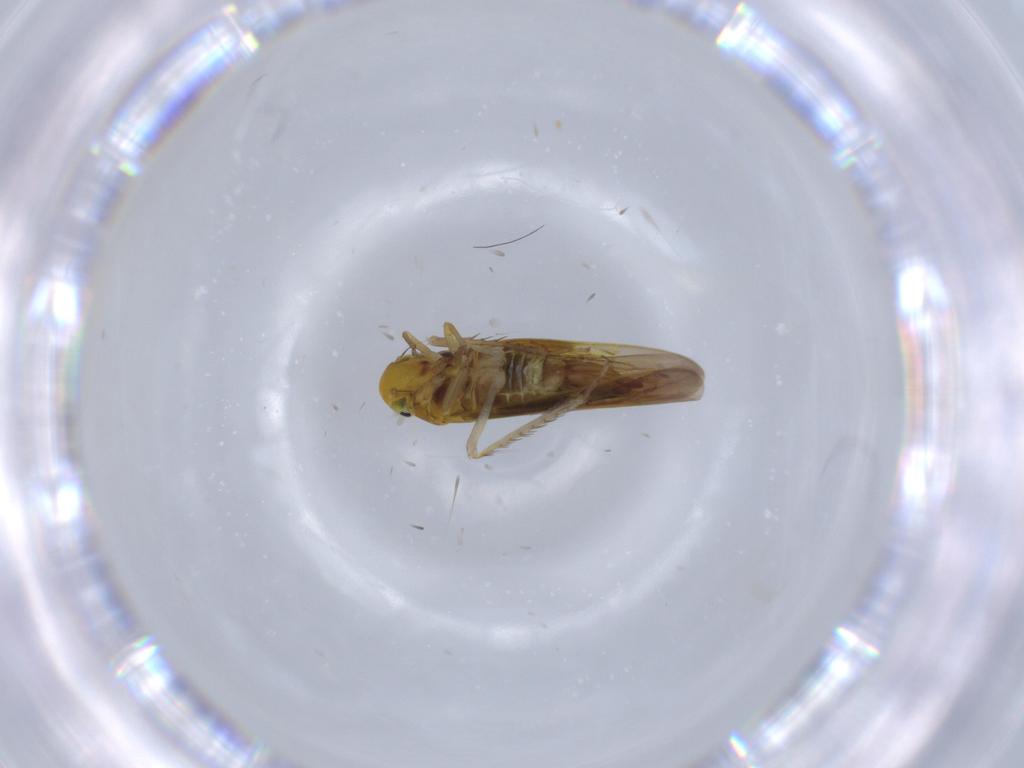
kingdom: Animalia
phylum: Arthropoda
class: Insecta
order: Hemiptera
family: Cicadellidae
